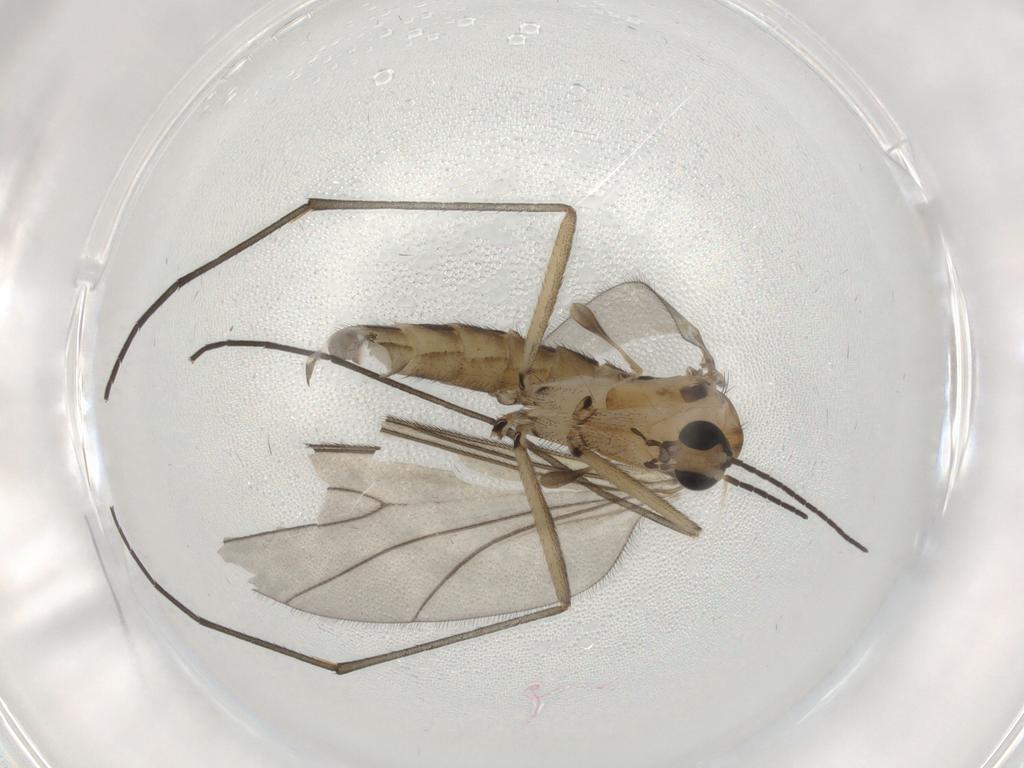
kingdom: Animalia
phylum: Arthropoda
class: Insecta
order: Diptera
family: Sciaridae
